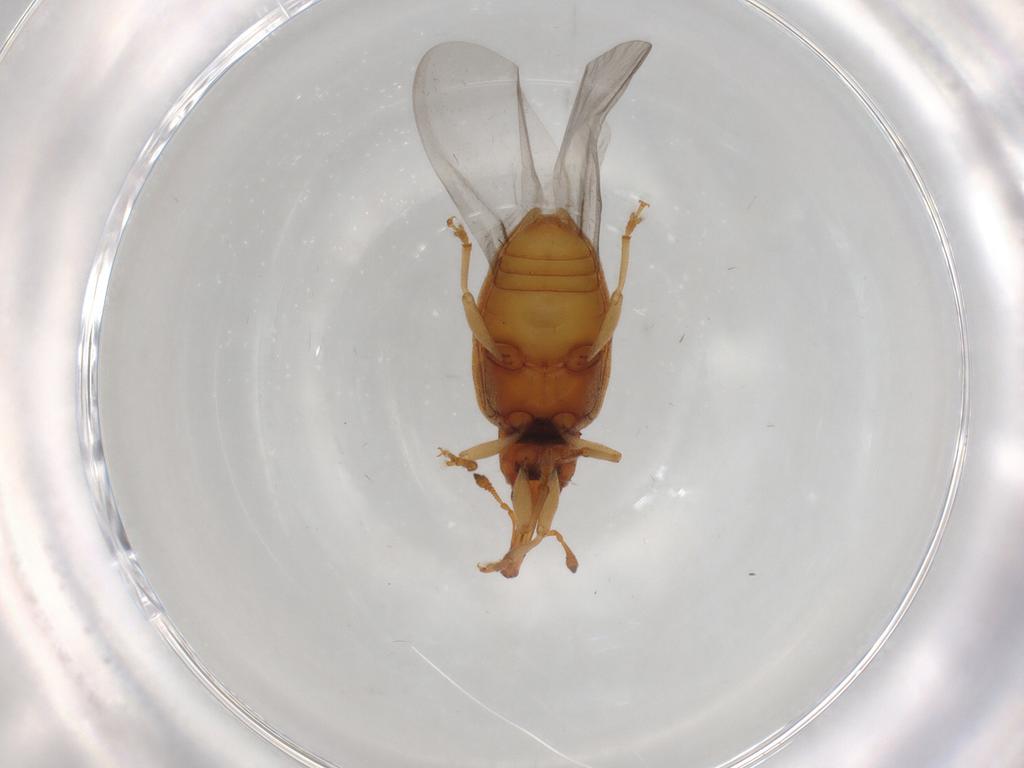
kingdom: Animalia
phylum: Arthropoda
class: Insecta
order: Coleoptera
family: Curculionidae
